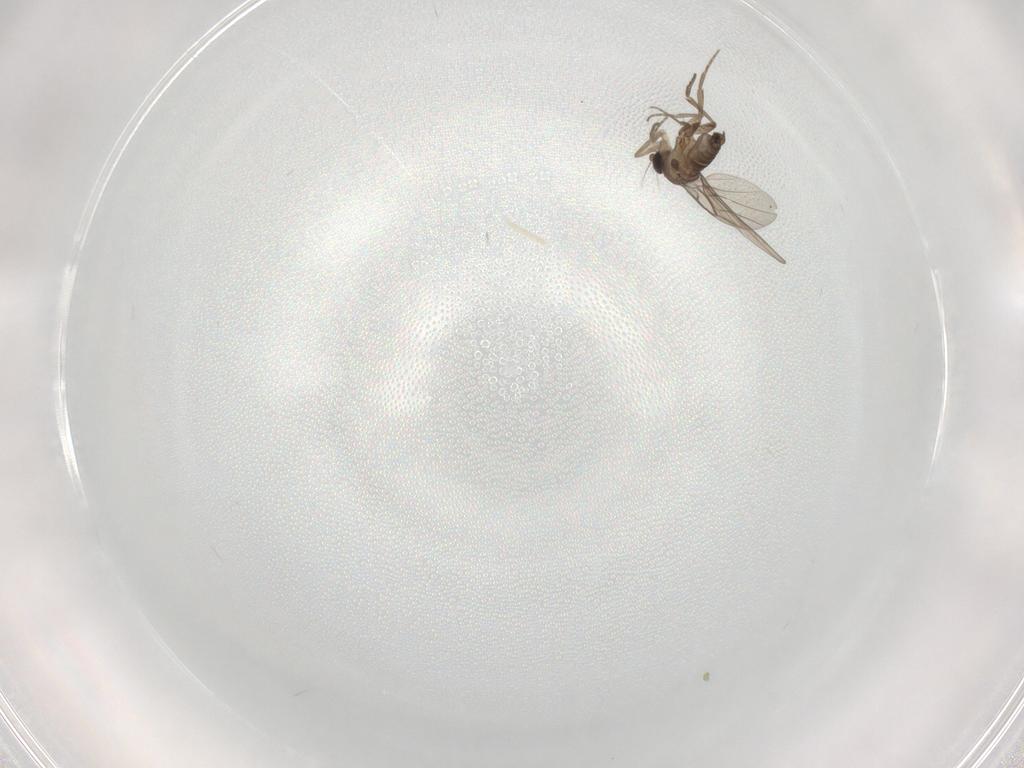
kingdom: Animalia
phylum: Arthropoda
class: Insecta
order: Diptera
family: Ceratopogonidae
